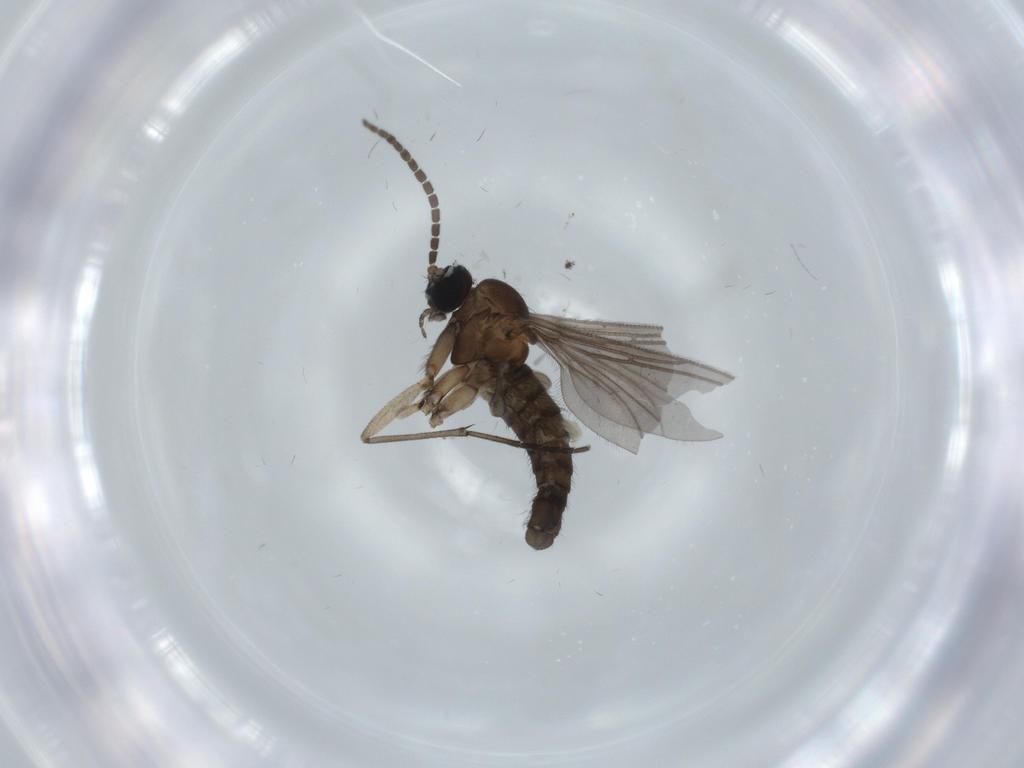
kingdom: Animalia
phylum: Arthropoda
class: Insecta
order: Diptera
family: Sciaridae
